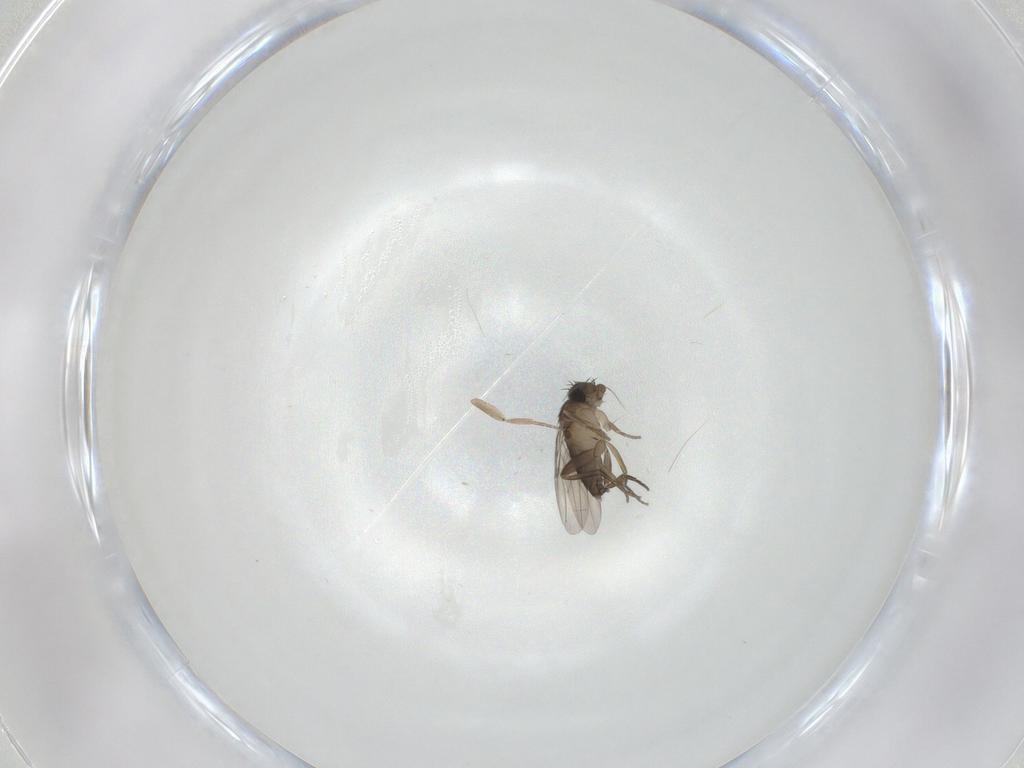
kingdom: Animalia
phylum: Arthropoda
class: Insecta
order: Diptera
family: Phoridae
